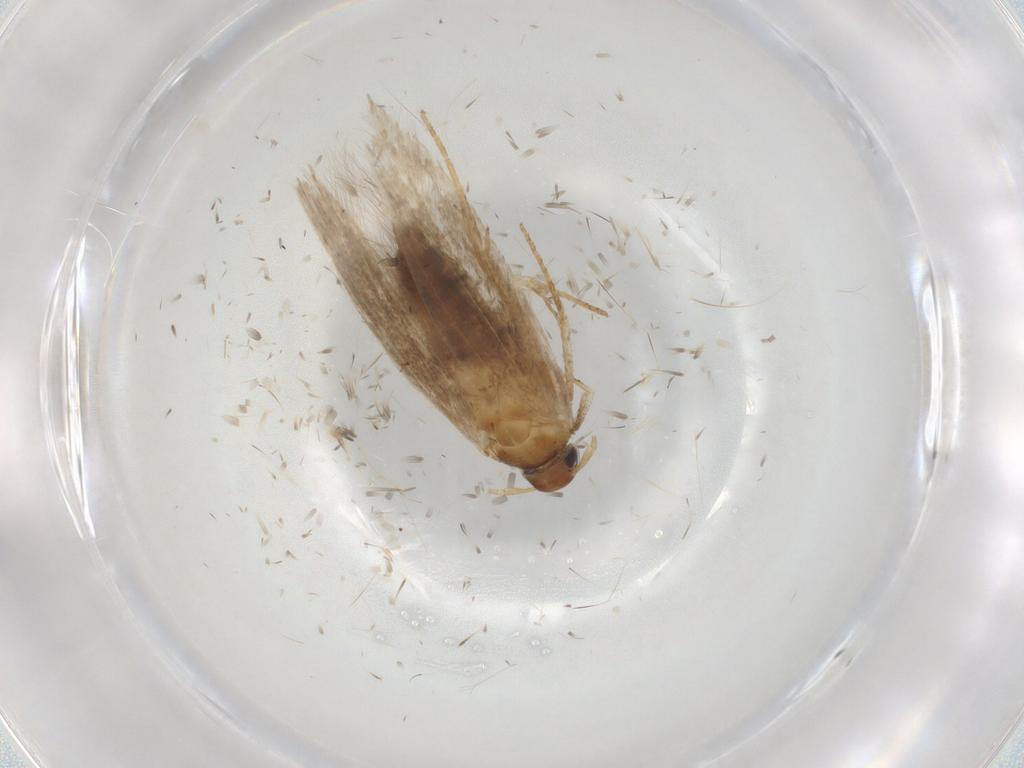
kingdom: Animalia
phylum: Arthropoda
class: Insecta
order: Lepidoptera
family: Cosmopterigidae
